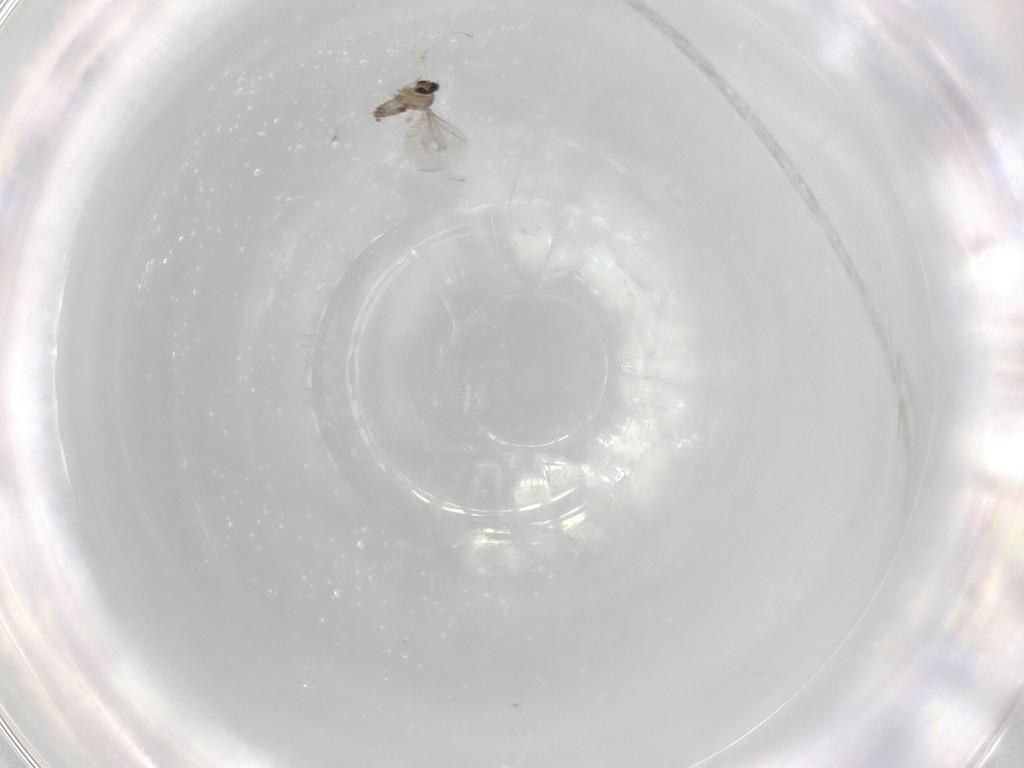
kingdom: Animalia
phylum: Arthropoda
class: Insecta
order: Diptera
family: Cecidomyiidae
